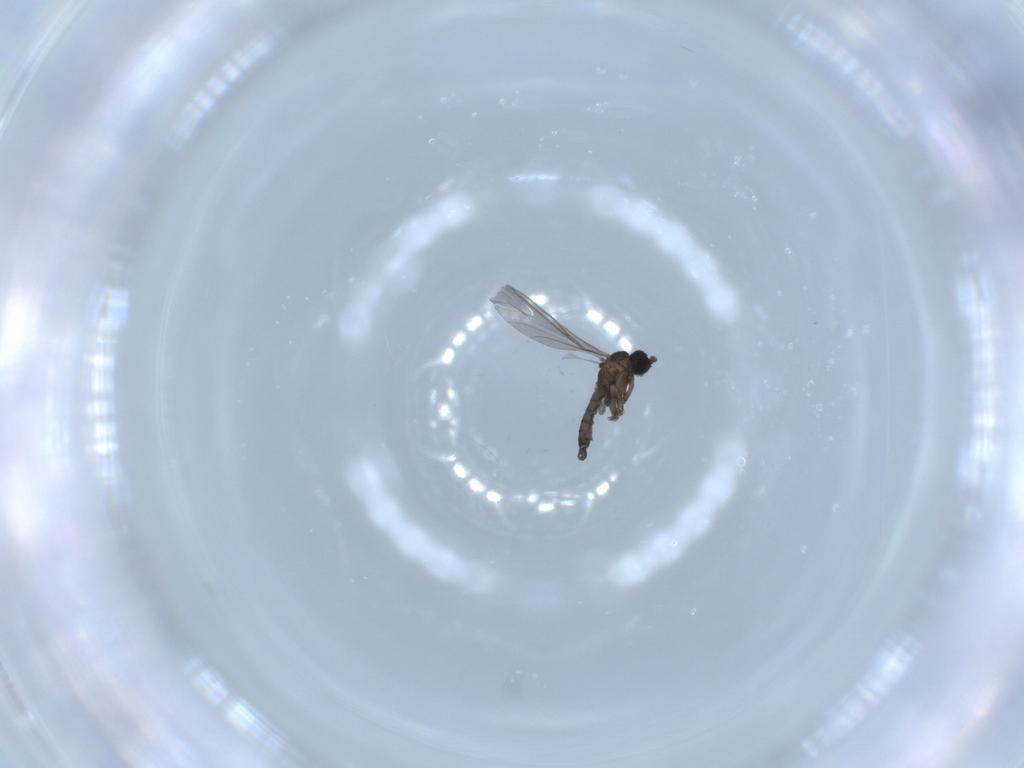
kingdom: Animalia
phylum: Arthropoda
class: Insecta
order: Diptera
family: Sciaridae
